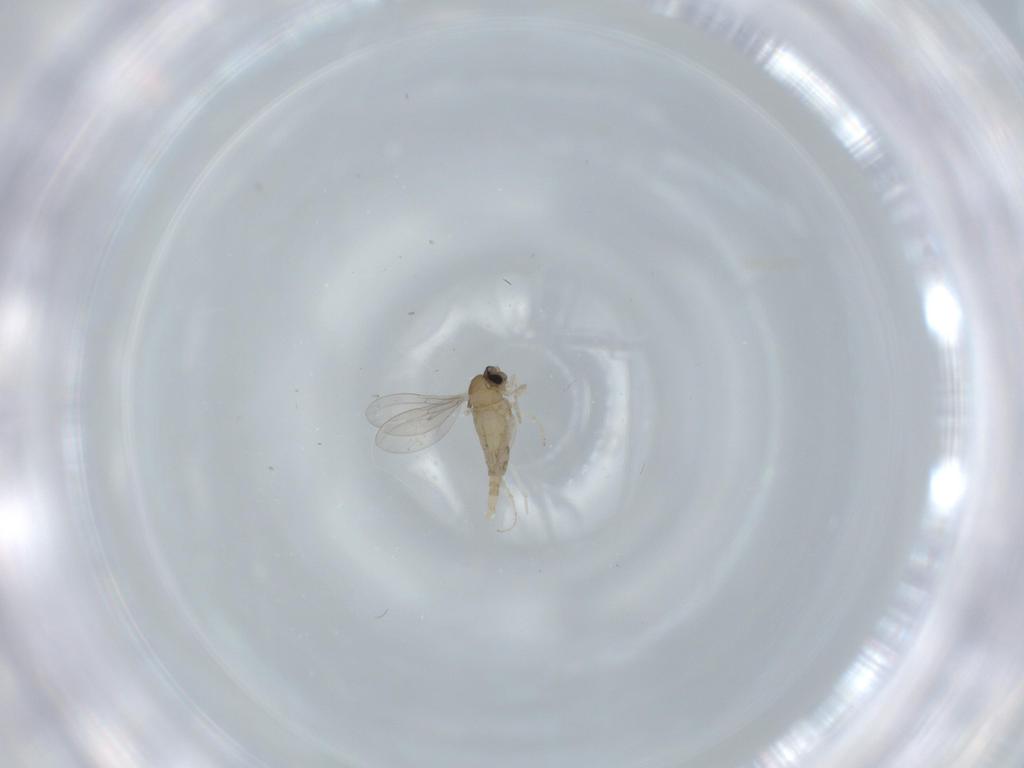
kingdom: Animalia
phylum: Arthropoda
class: Insecta
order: Diptera
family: Cecidomyiidae
